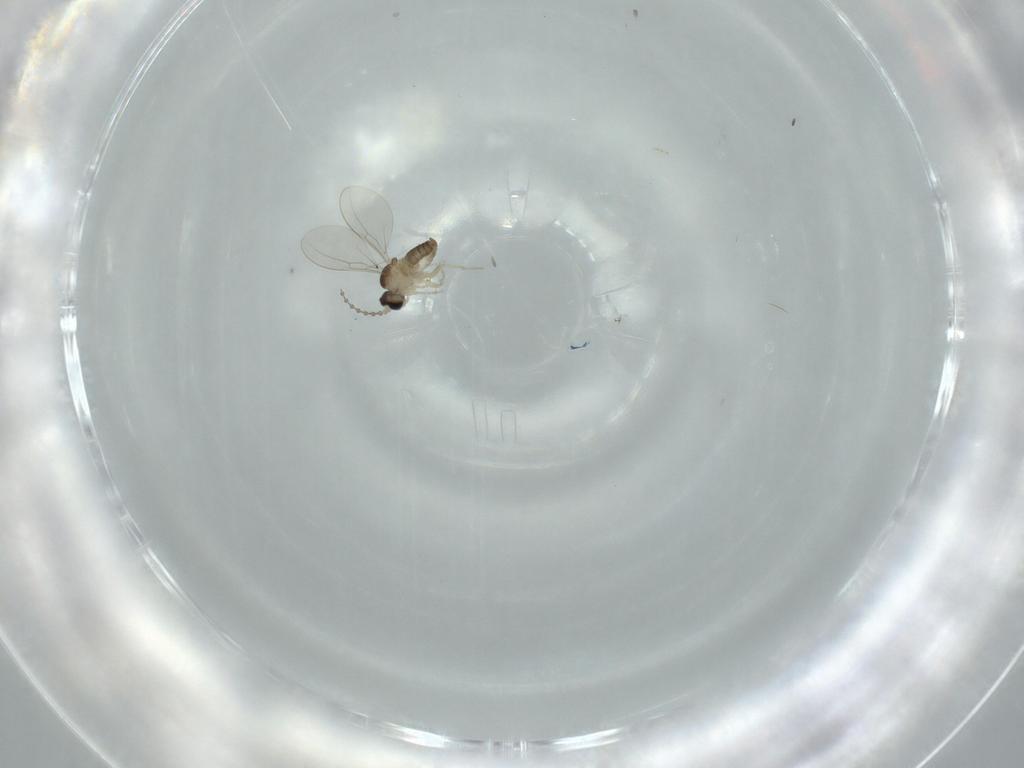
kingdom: Animalia
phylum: Arthropoda
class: Insecta
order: Diptera
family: Cecidomyiidae
